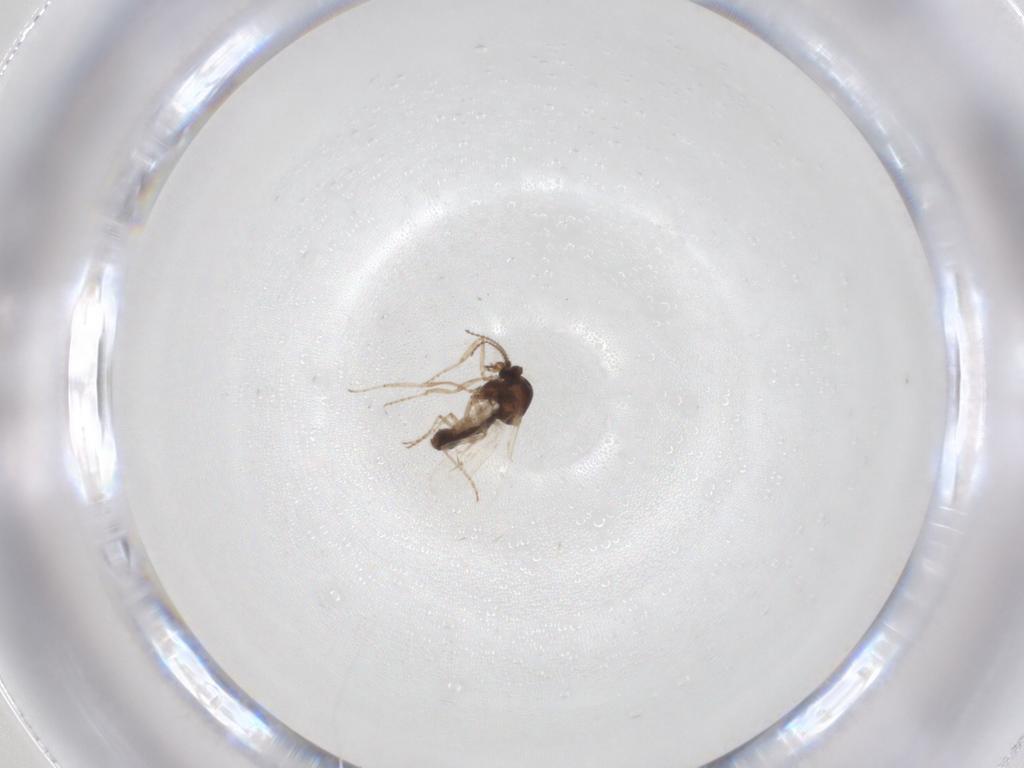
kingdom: Animalia
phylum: Arthropoda
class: Insecta
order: Diptera
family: Ceratopogonidae
